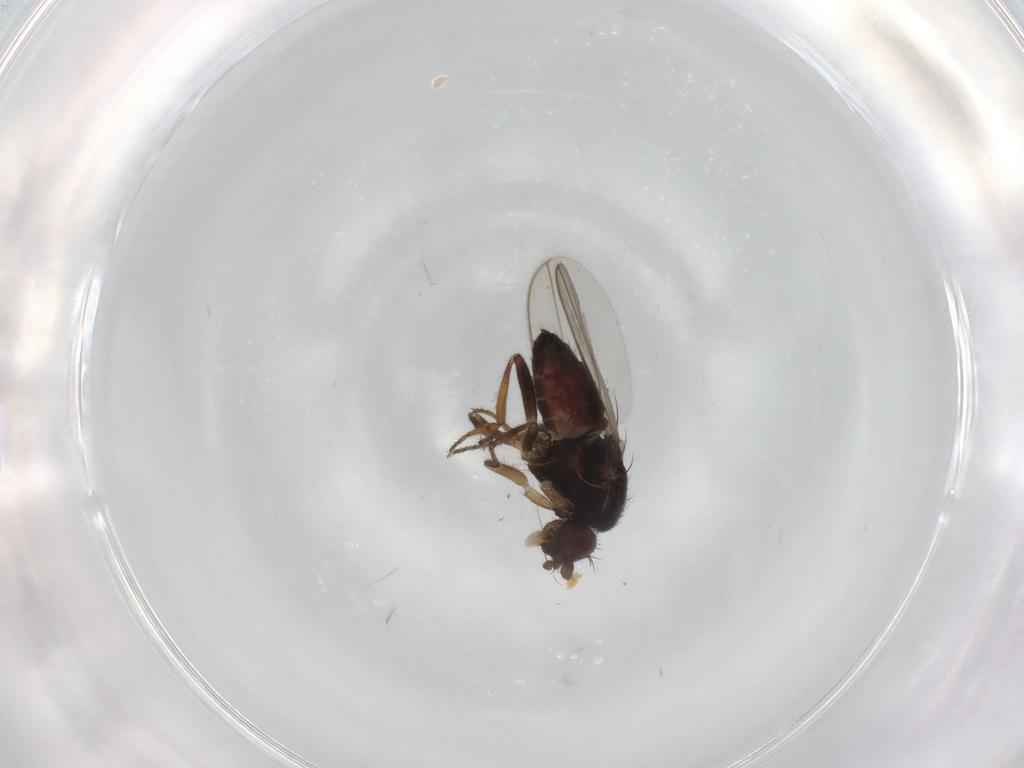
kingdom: Animalia
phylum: Arthropoda
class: Insecta
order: Diptera
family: Sphaeroceridae
